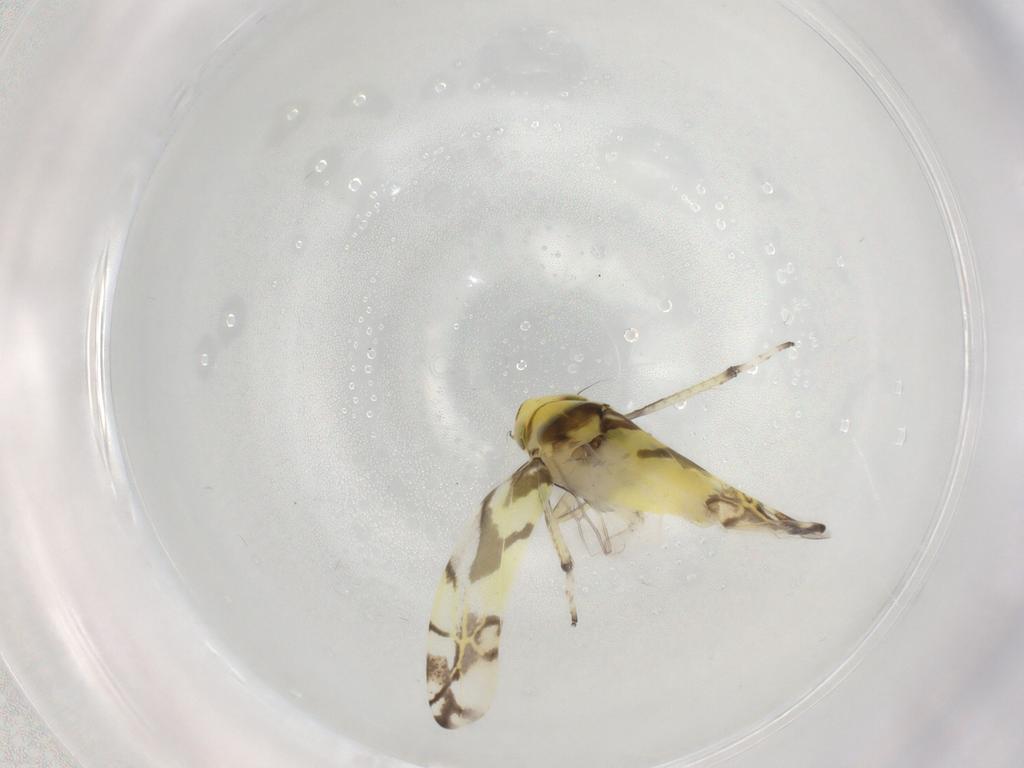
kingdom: Animalia
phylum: Arthropoda
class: Insecta
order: Hemiptera
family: Cicadellidae
